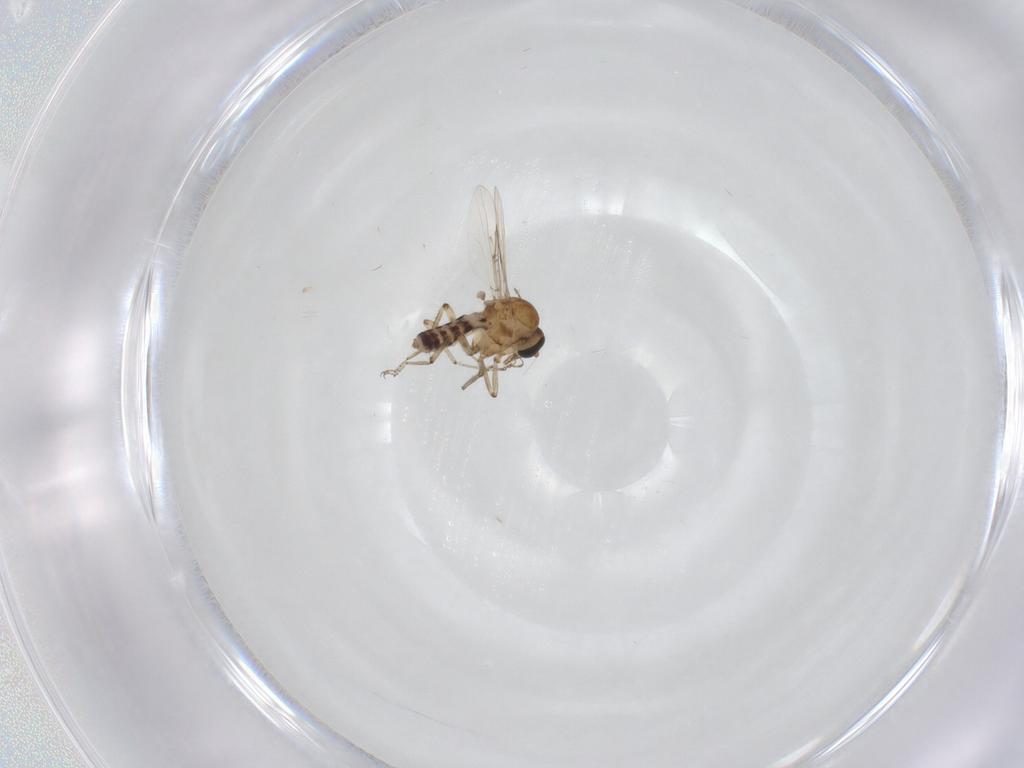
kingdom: Animalia
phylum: Arthropoda
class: Insecta
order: Diptera
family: Ceratopogonidae
